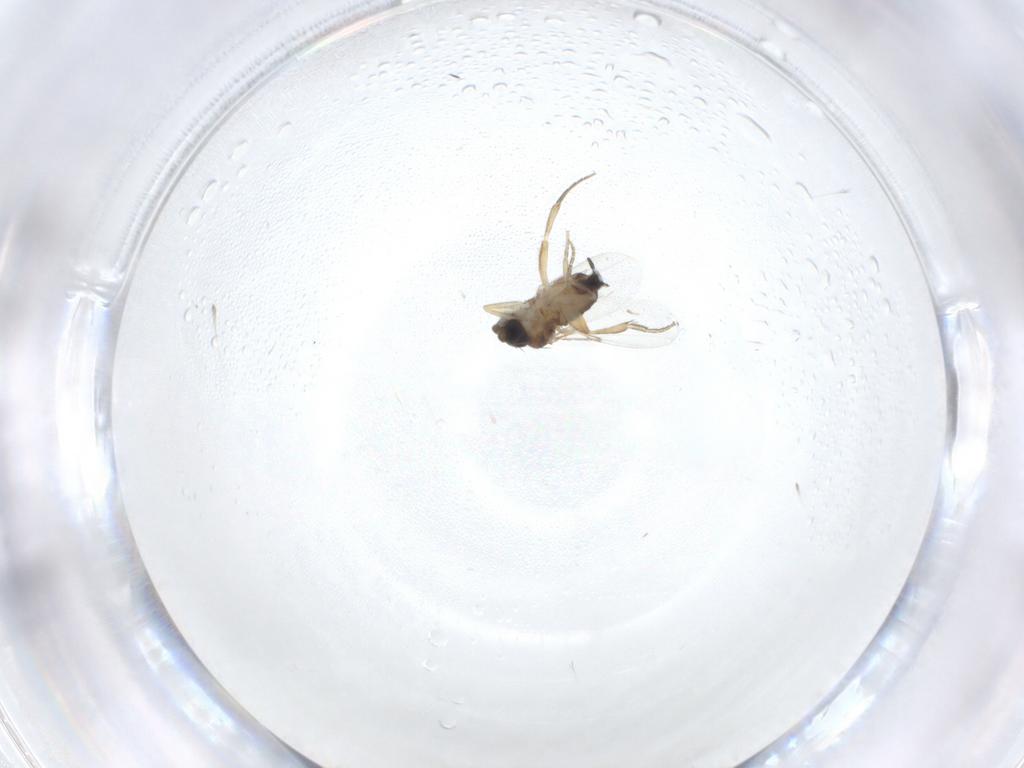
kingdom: Animalia
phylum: Arthropoda
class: Insecta
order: Diptera
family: Phoridae
